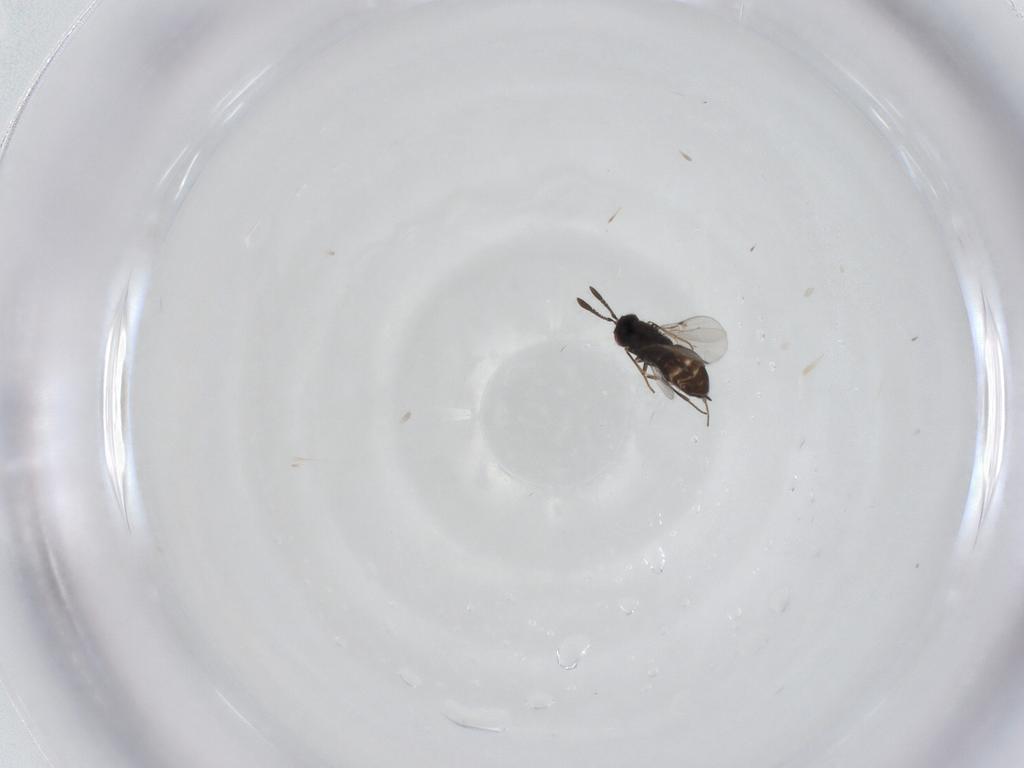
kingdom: Animalia
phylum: Arthropoda
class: Insecta
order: Hymenoptera
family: Encyrtidae
